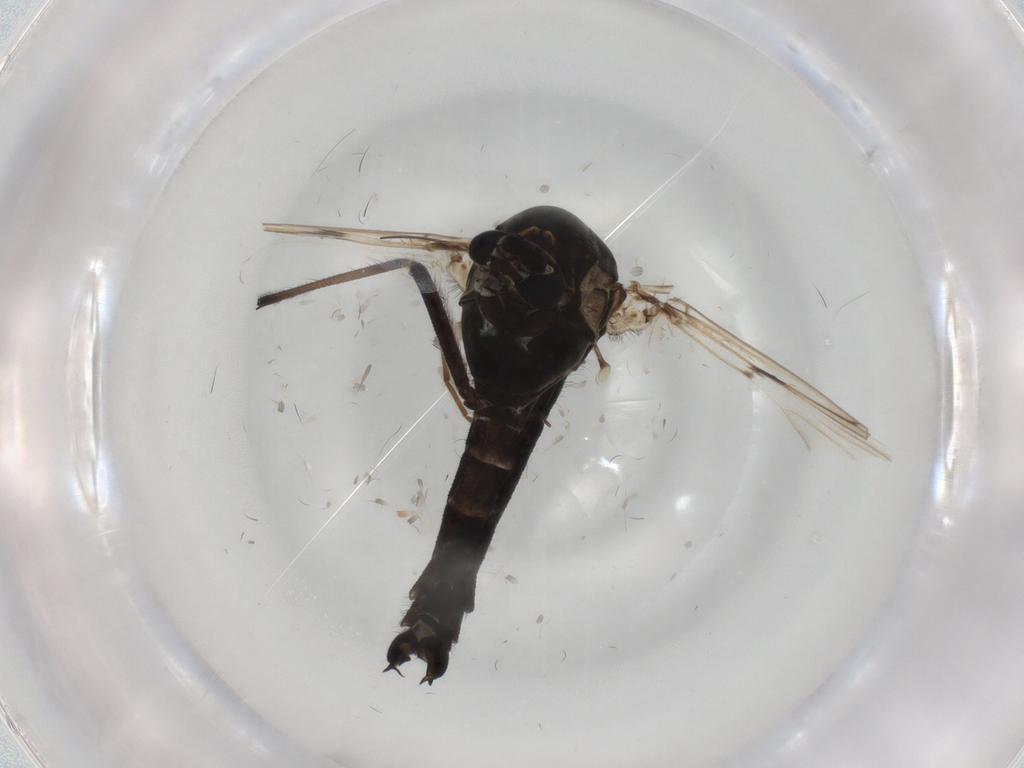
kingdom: Animalia
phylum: Arthropoda
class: Insecta
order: Diptera
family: Chironomidae
